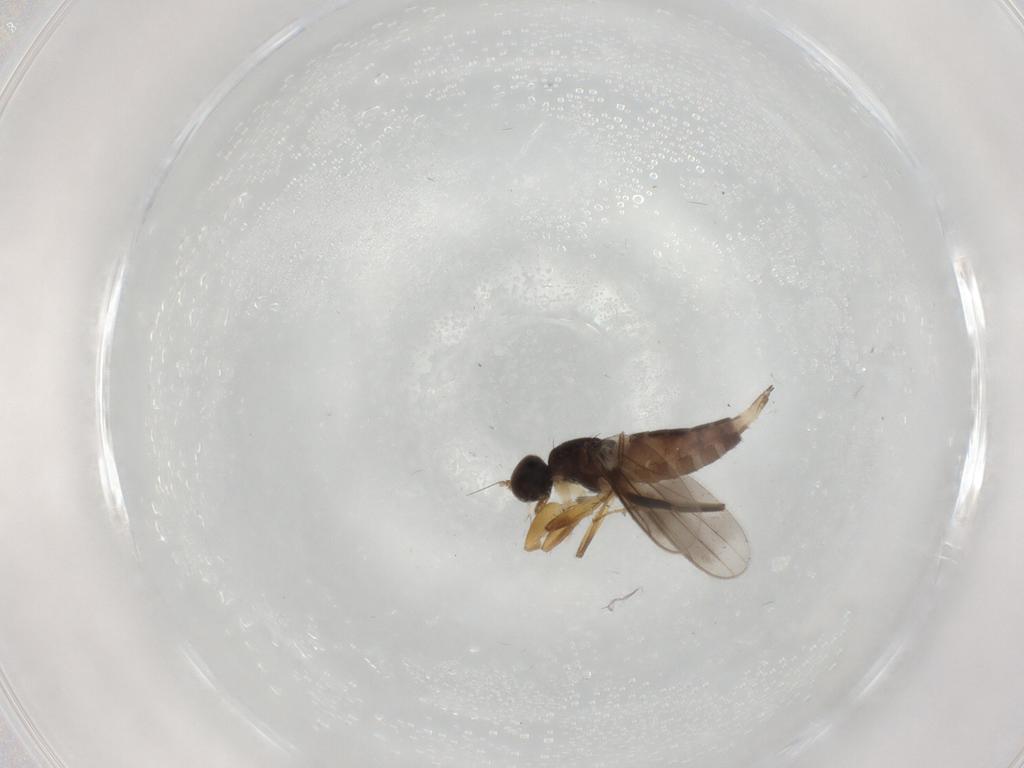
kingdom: Animalia
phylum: Arthropoda
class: Insecta
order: Diptera
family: Hybotidae
